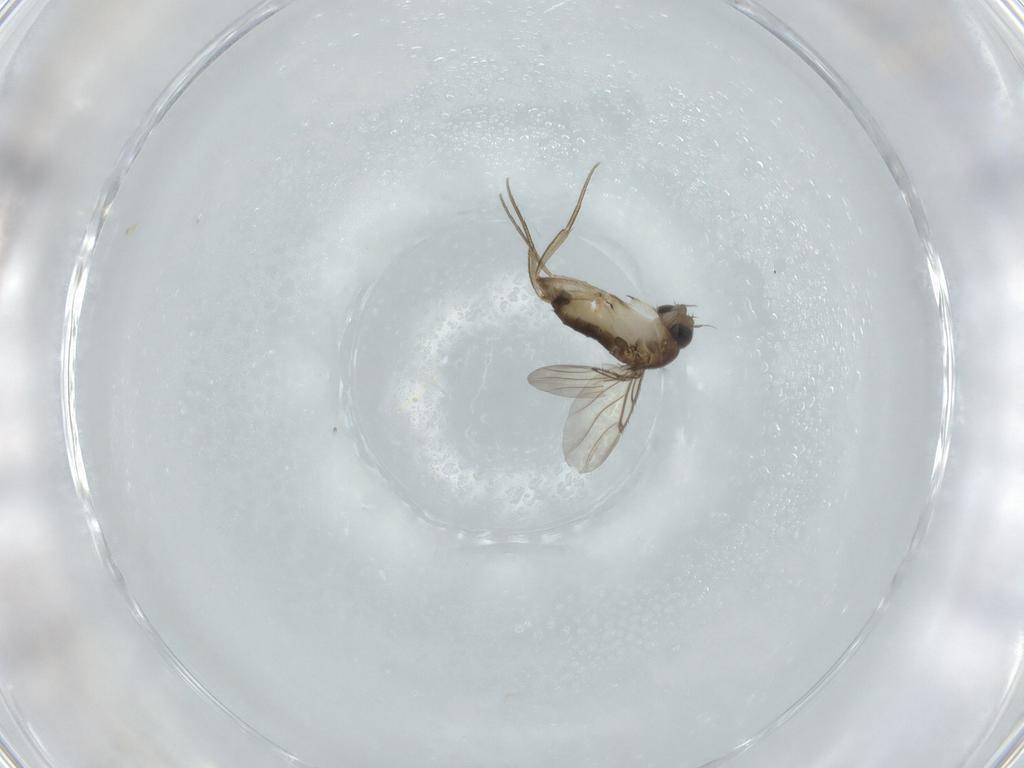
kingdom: Animalia
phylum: Arthropoda
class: Insecta
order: Diptera
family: Phoridae
